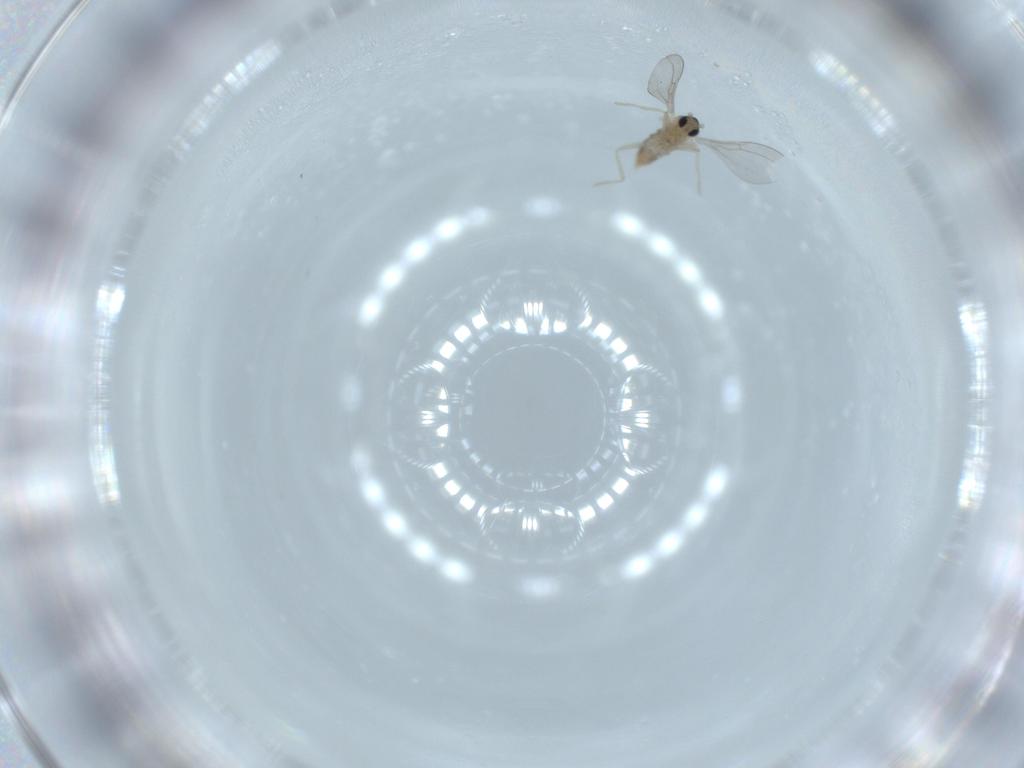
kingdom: Animalia
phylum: Arthropoda
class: Insecta
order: Diptera
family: Cecidomyiidae
